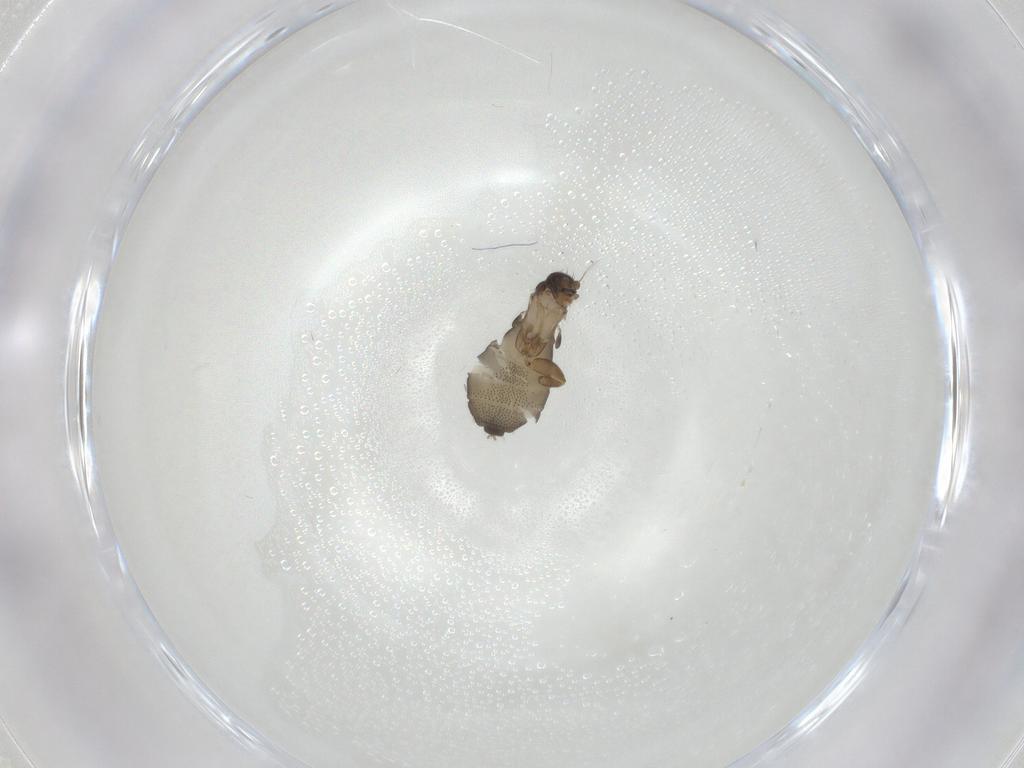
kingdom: Animalia
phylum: Arthropoda
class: Insecta
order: Diptera
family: Phoridae
